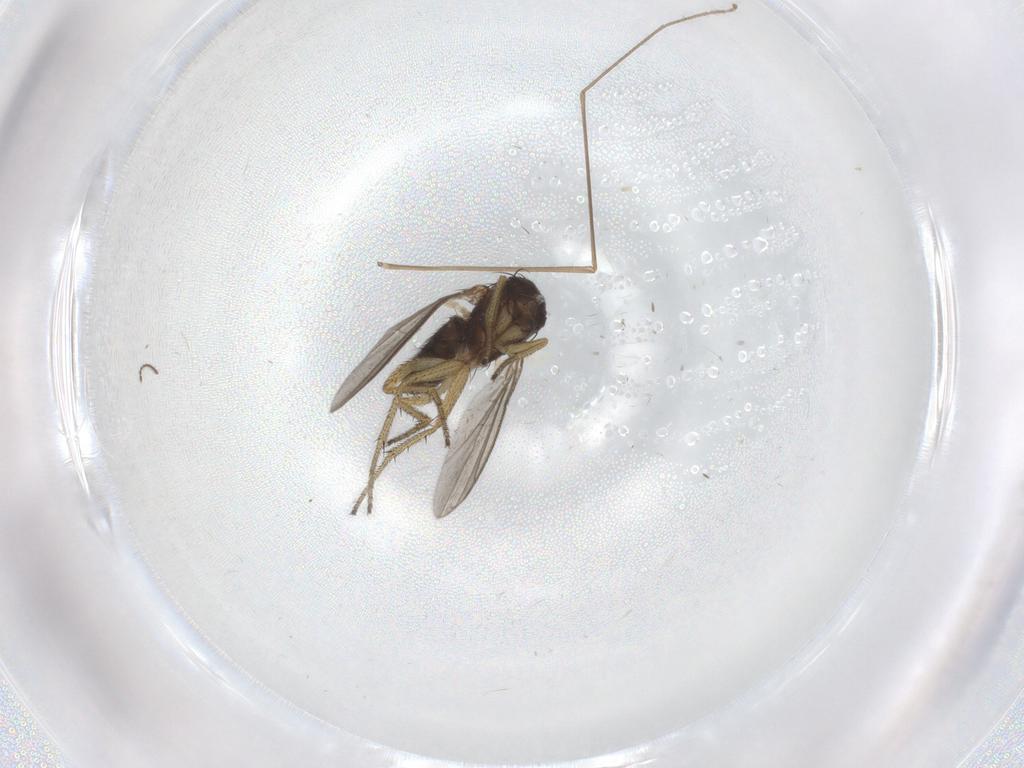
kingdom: Animalia
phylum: Arthropoda
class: Insecta
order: Diptera
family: Limoniidae
